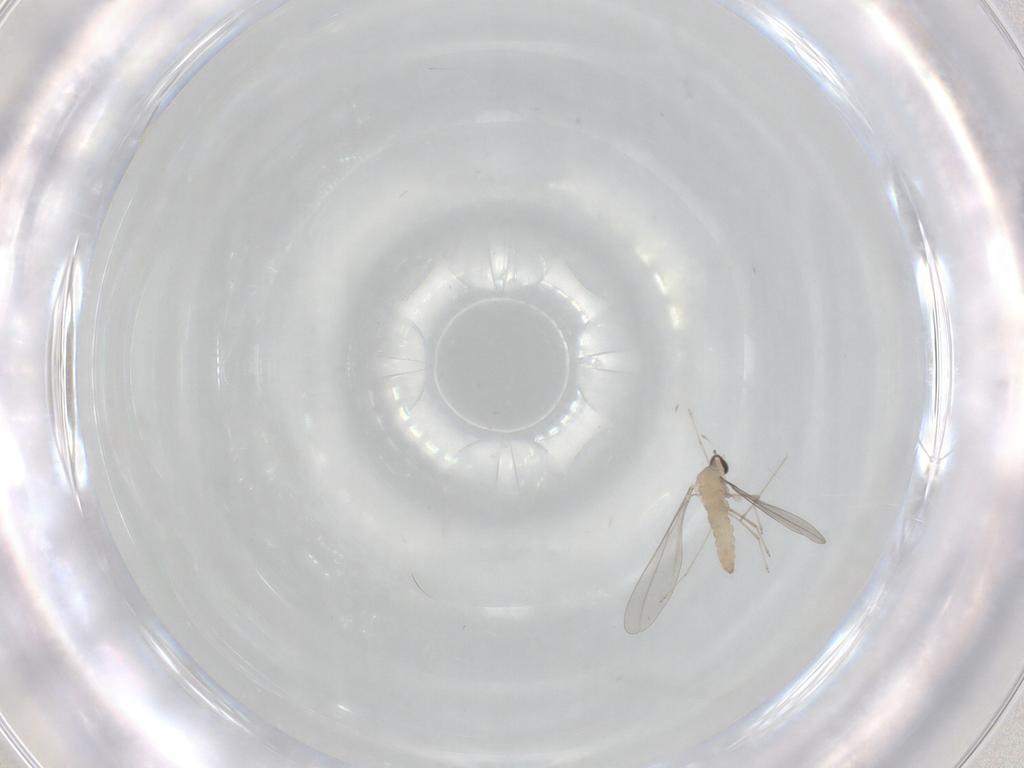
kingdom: Animalia
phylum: Arthropoda
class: Insecta
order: Diptera
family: Cecidomyiidae
